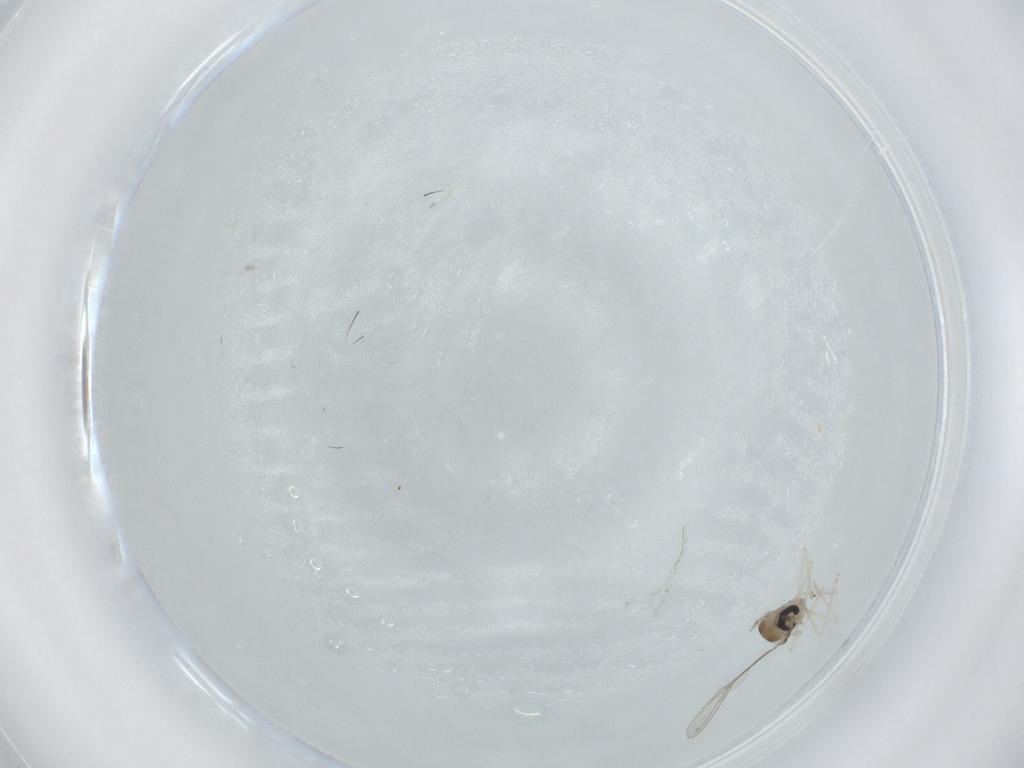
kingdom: Animalia
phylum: Arthropoda
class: Insecta
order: Diptera
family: Cecidomyiidae
